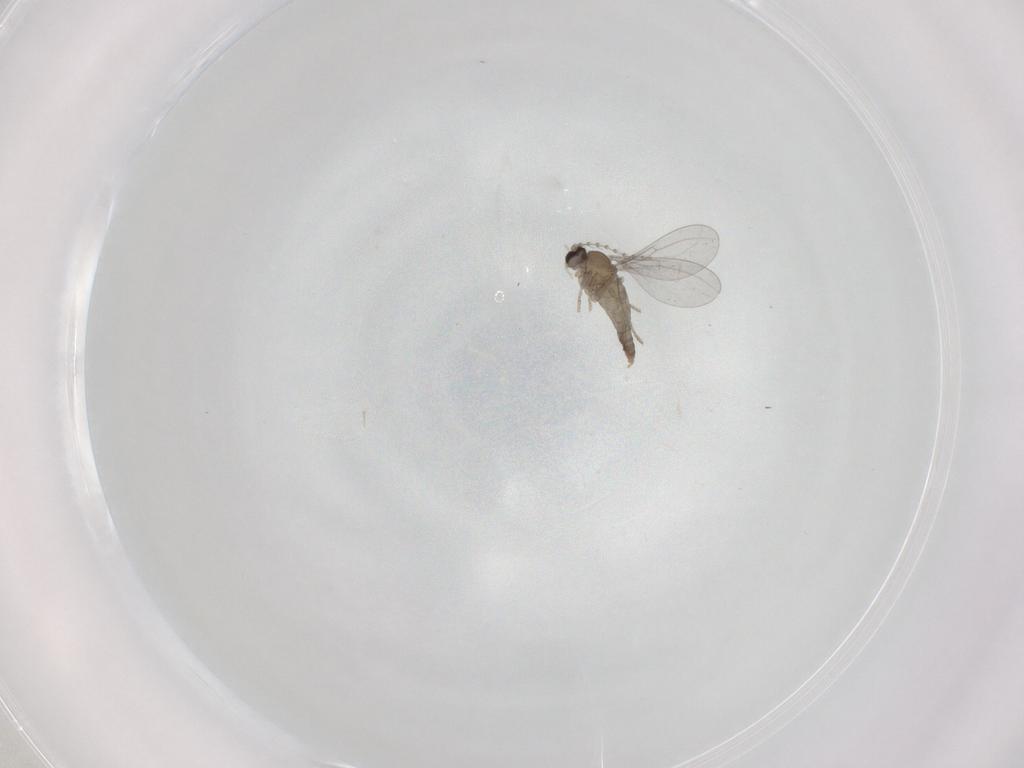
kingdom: Animalia
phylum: Arthropoda
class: Insecta
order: Diptera
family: Cecidomyiidae
